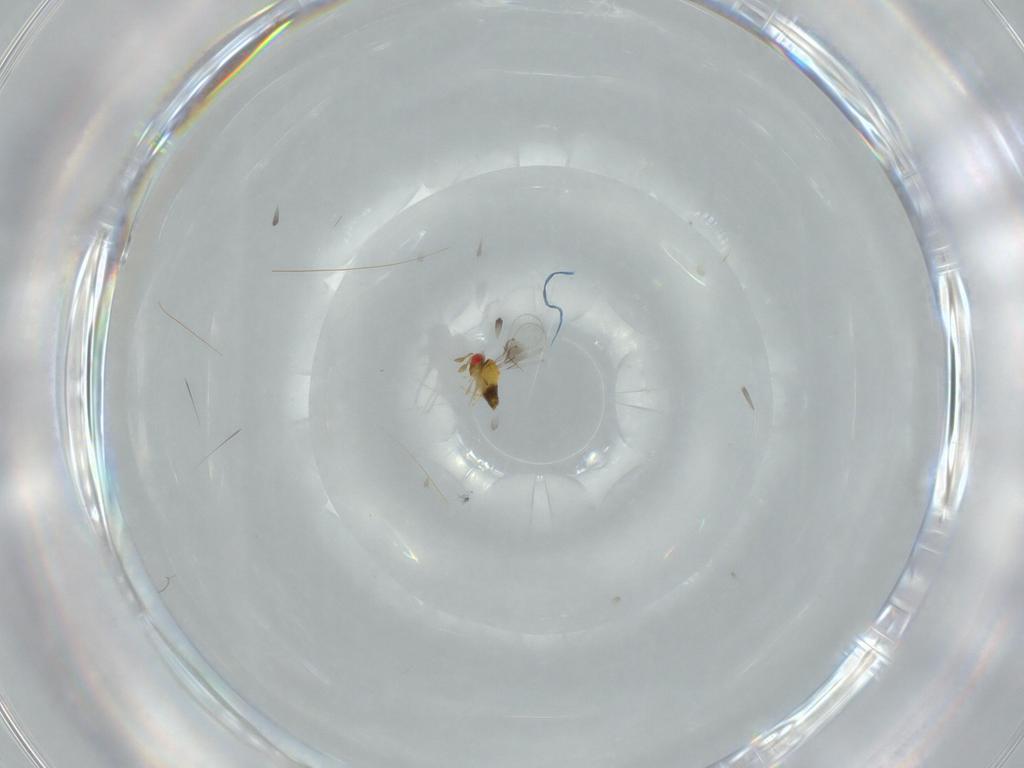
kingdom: Animalia
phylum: Arthropoda
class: Insecta
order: Hymenoptera
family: Trichogrammatidae
